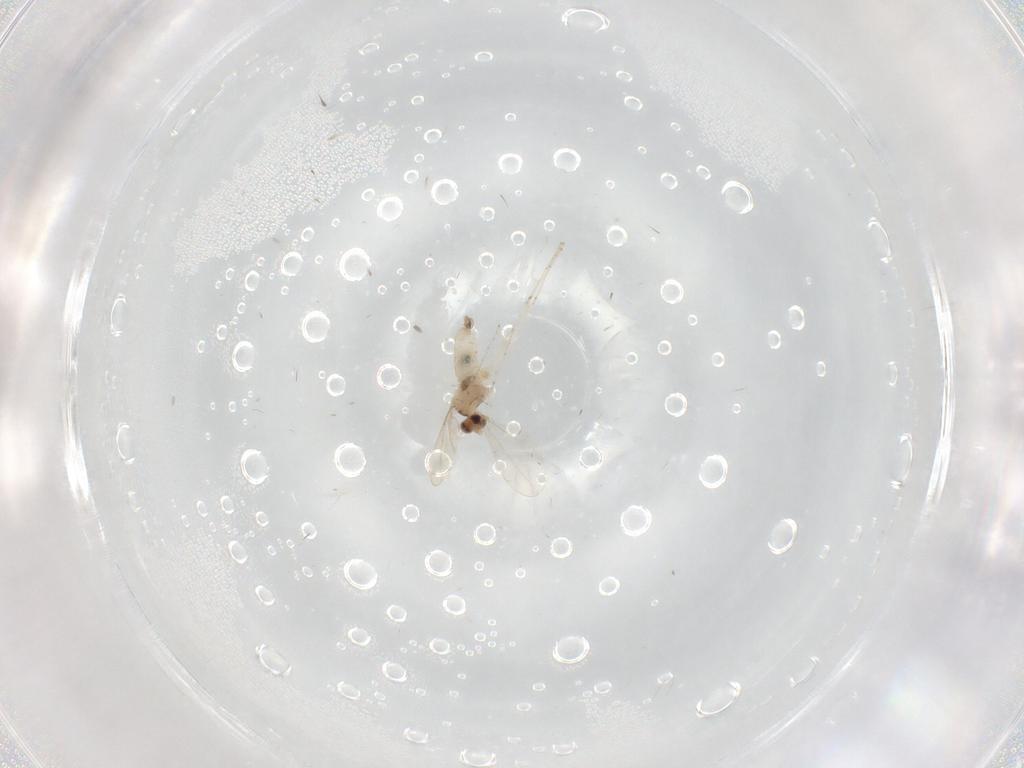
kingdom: Animalia
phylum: Arthropoda
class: Insecta
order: Diptera
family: Cecidomyiidae
